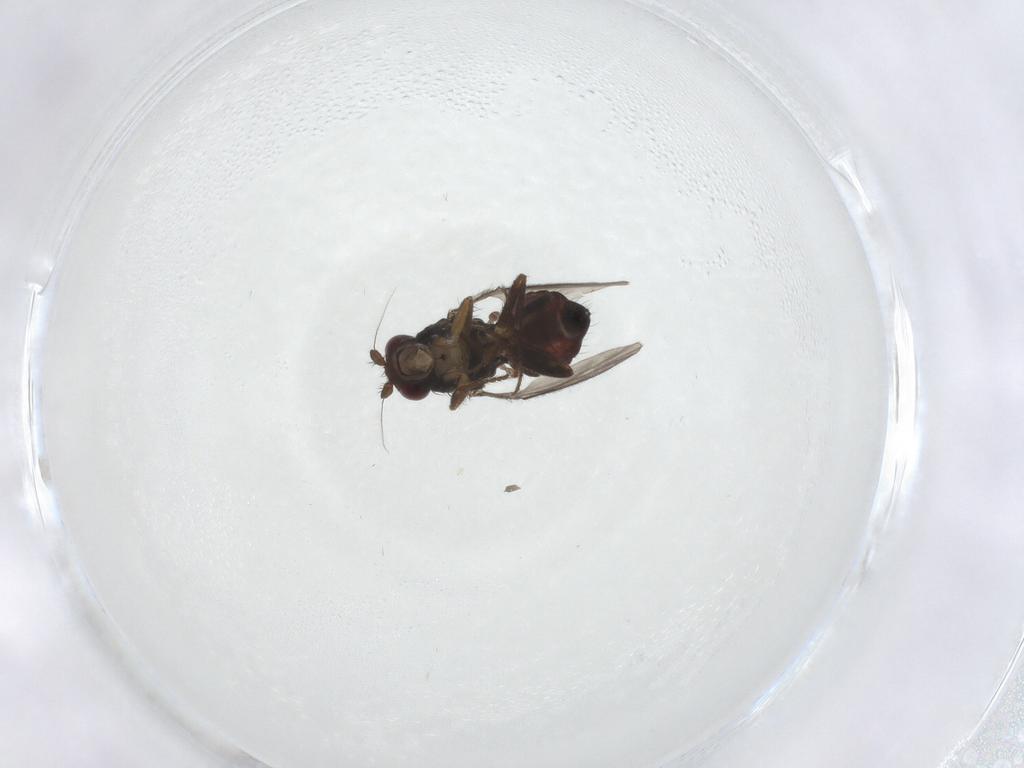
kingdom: Animalia
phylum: Arthropoda
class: Insecta
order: Diptera
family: Sphaeroceridae
